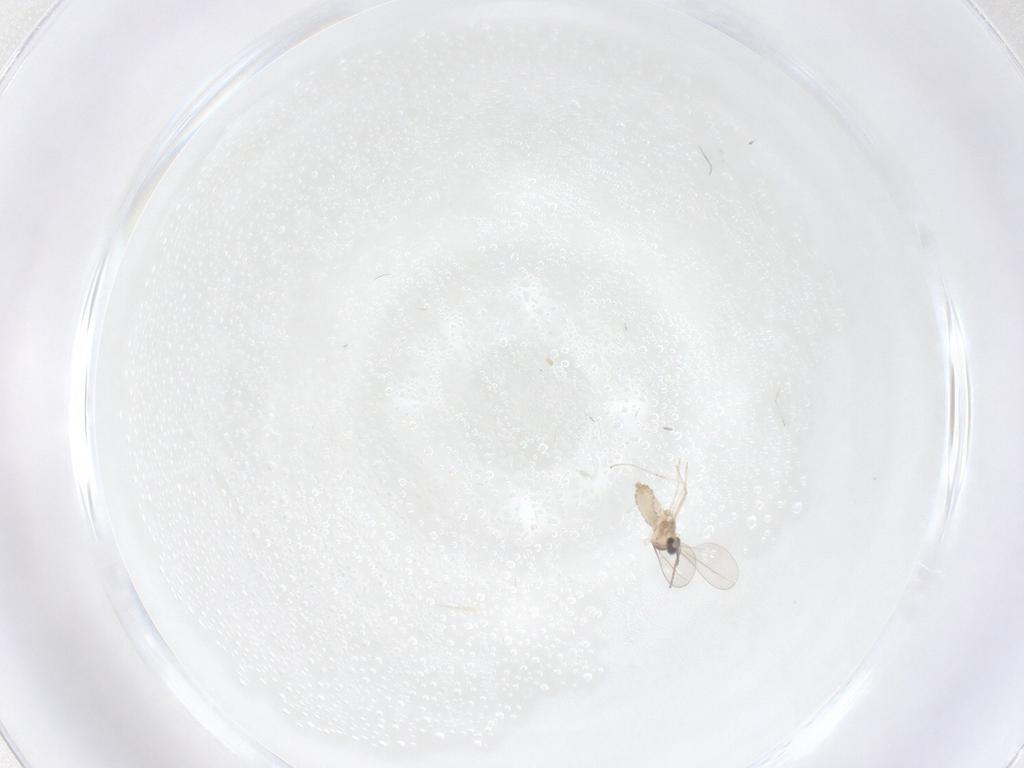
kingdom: Animalia
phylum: Arthropoda
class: Insecta
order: Diptera
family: Cecidomyiidae
